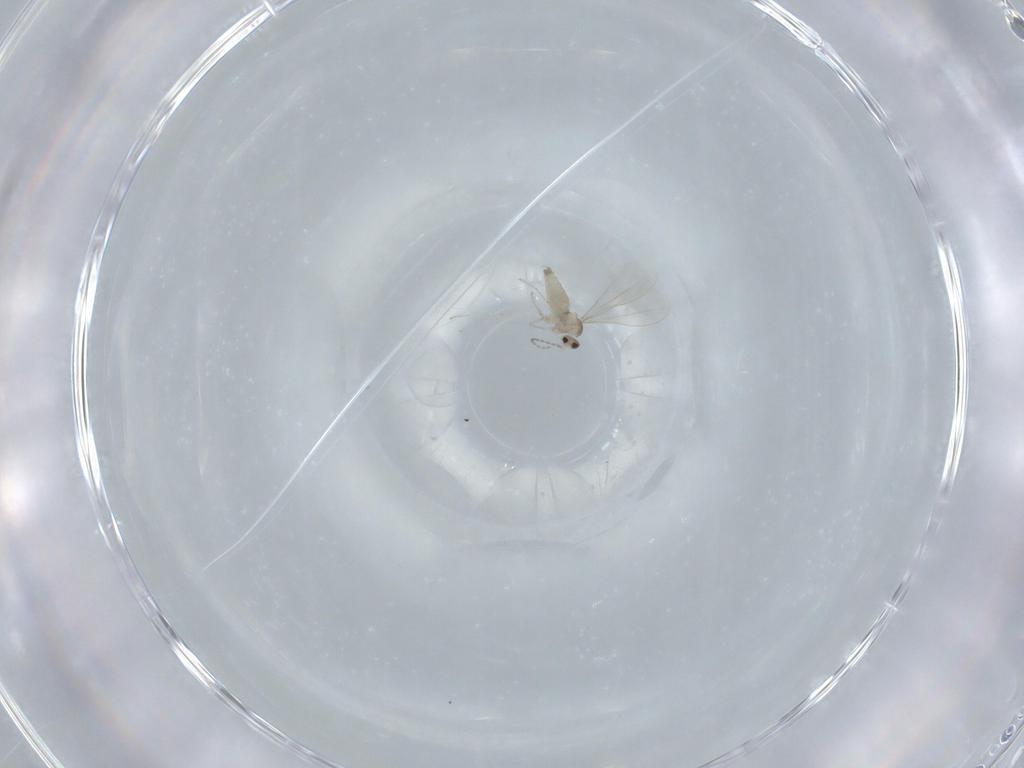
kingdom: Animalia
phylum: Arthropoda
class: Insecta
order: Diptera
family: Cecidomyiidae
